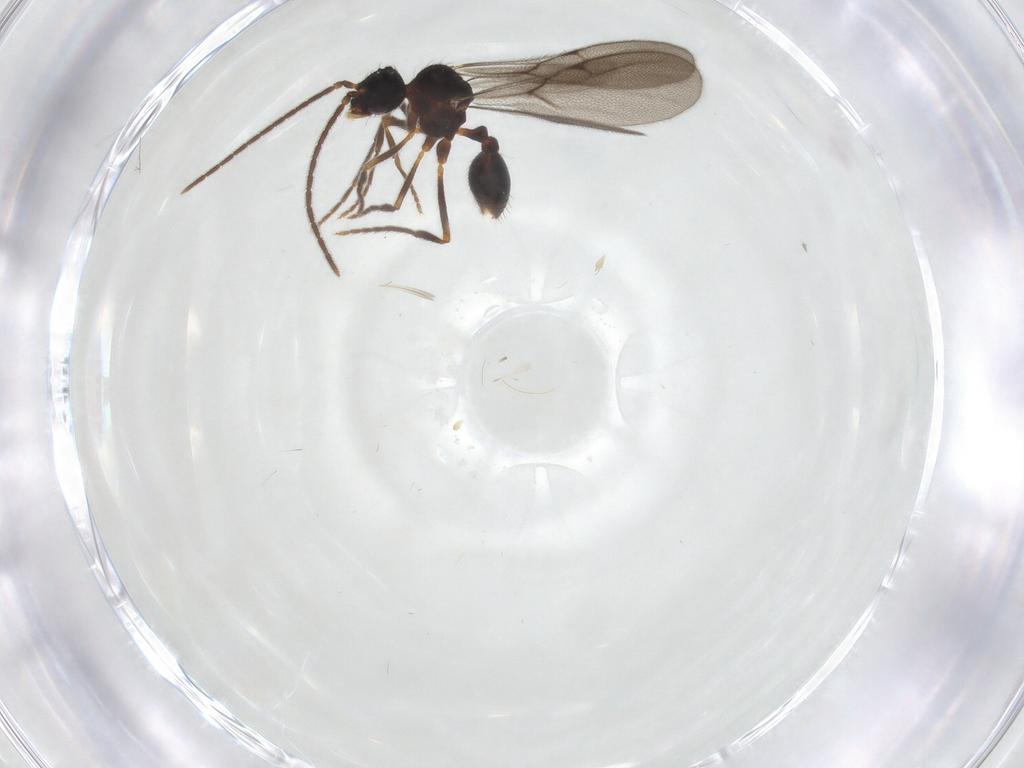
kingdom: Animalia
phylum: Arthropoda
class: Insecta
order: Hymenoptera
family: Formicidae
